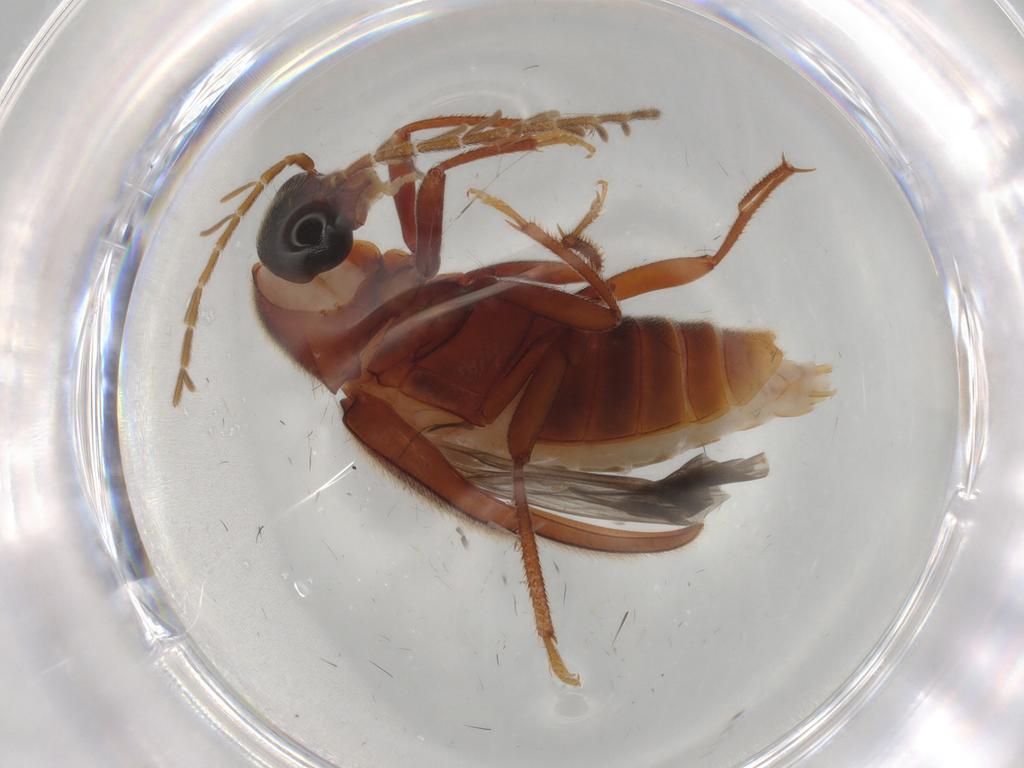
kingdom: Animalia
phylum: Arthropoda
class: Insecta
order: Coleoptera
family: Ptilodactylidae
